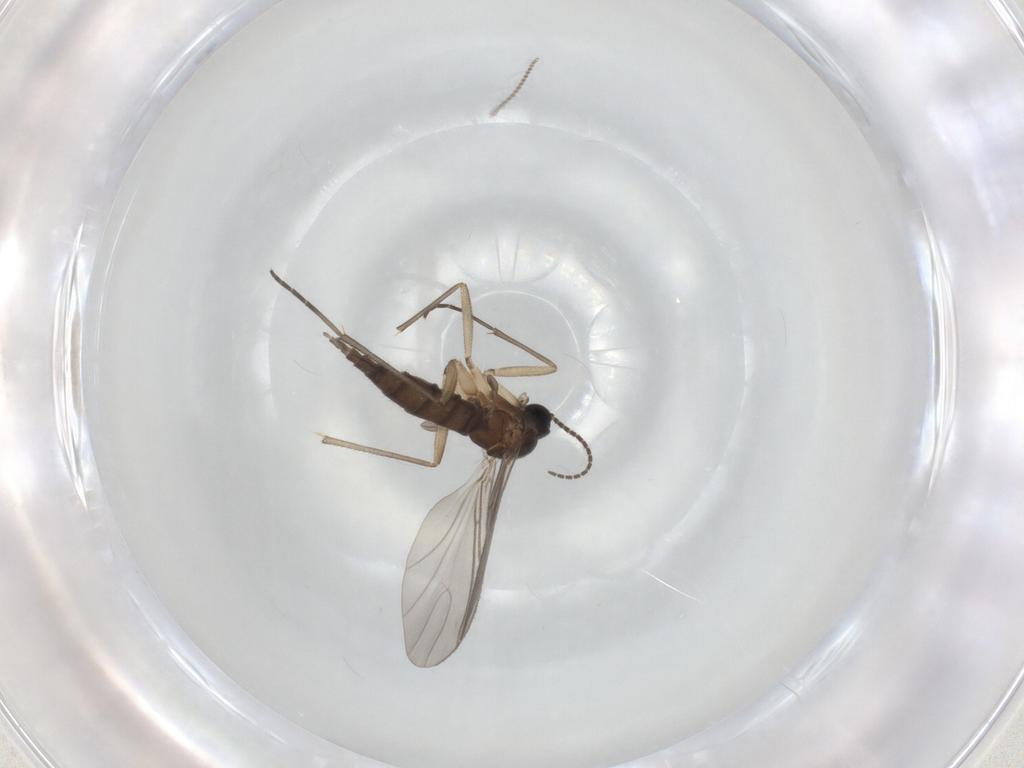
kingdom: Animalia
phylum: Arthropoda
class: Insecta
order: Diptera
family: Sciaridae
